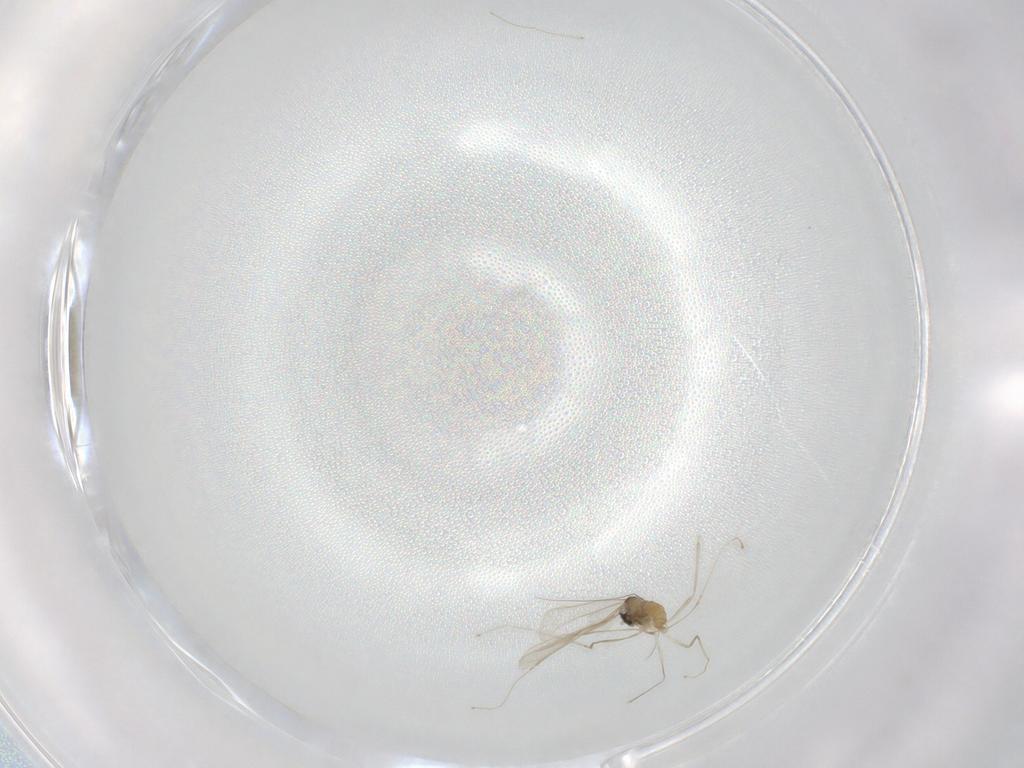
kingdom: Animalia
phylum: Arthropoda
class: Insecta
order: Diptera
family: Cecidomyiidae
